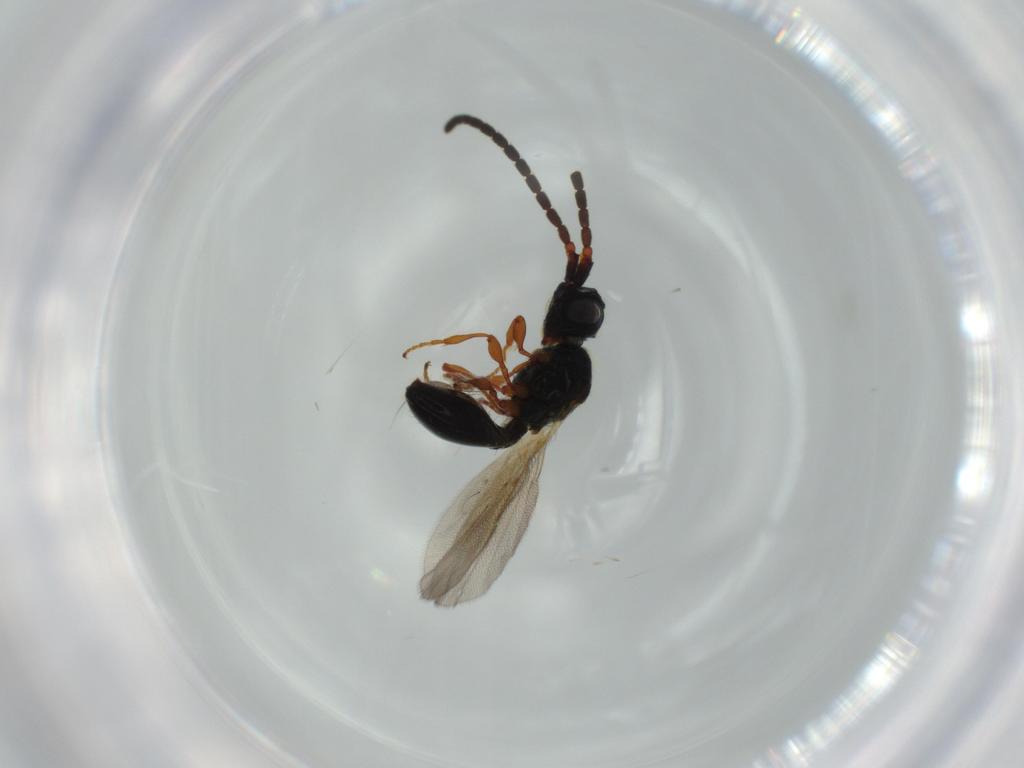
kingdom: Animalia
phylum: Arthropoda
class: Insecta
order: Hymenoptera
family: Diapriidae
